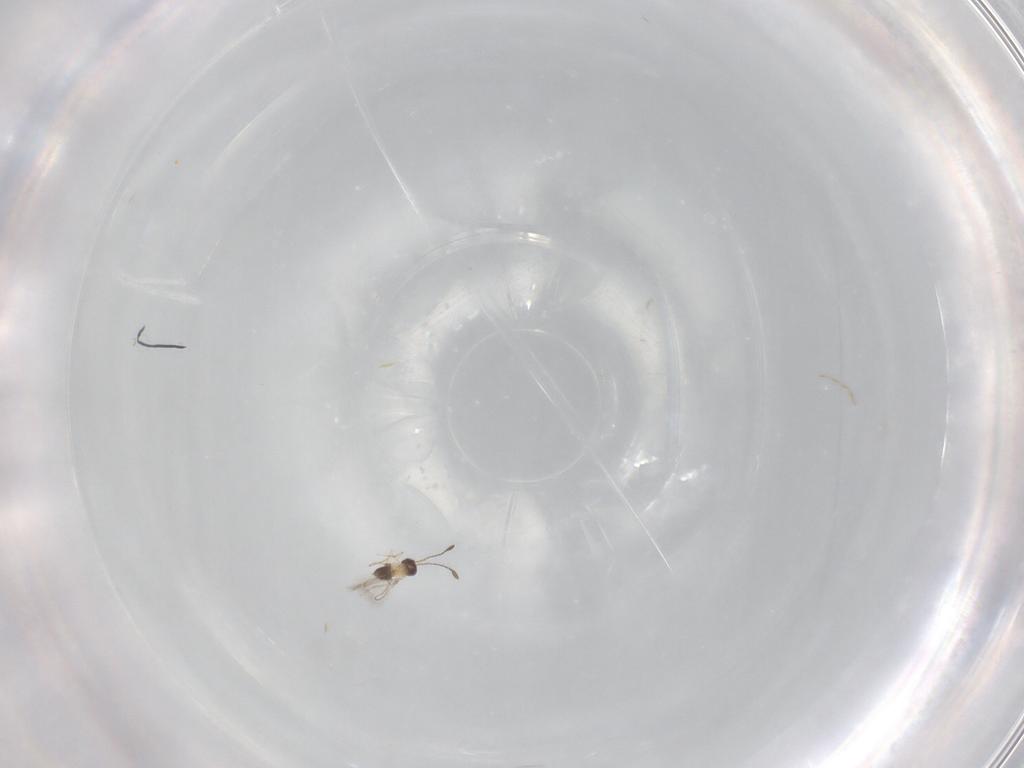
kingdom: Animalia
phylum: Arthropoda
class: Insecta
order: Hymenoptera
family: Mymaridae
